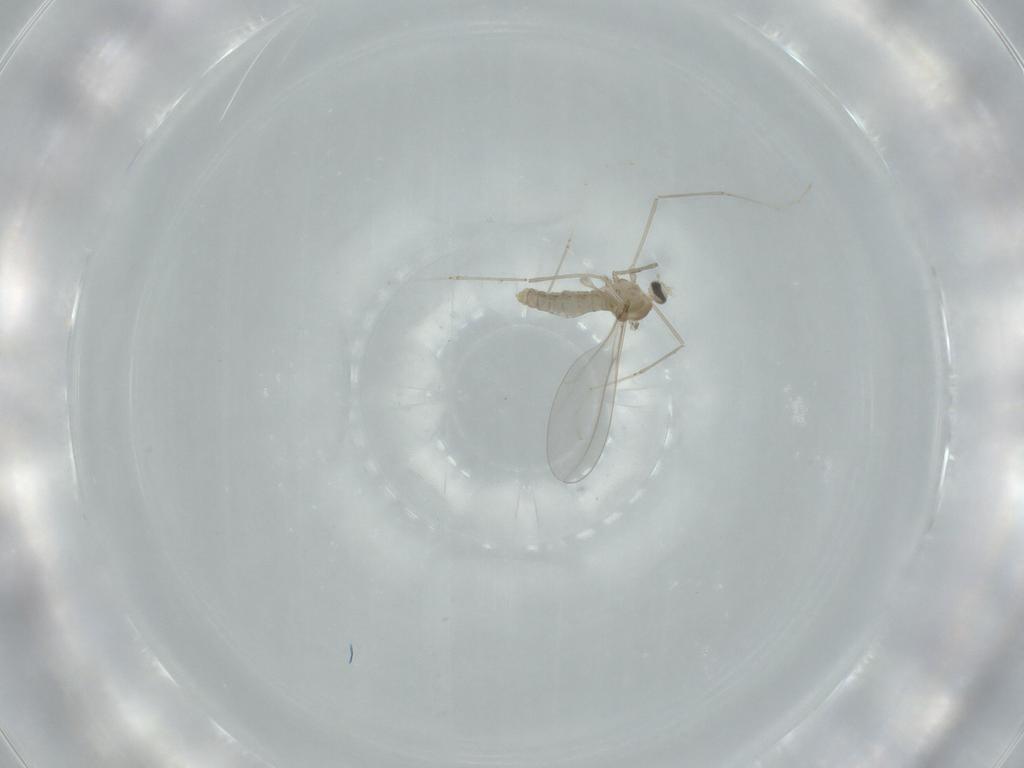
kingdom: Animalia
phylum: Arthropoda
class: Insecta
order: Diptera
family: Cecidomyiidae
